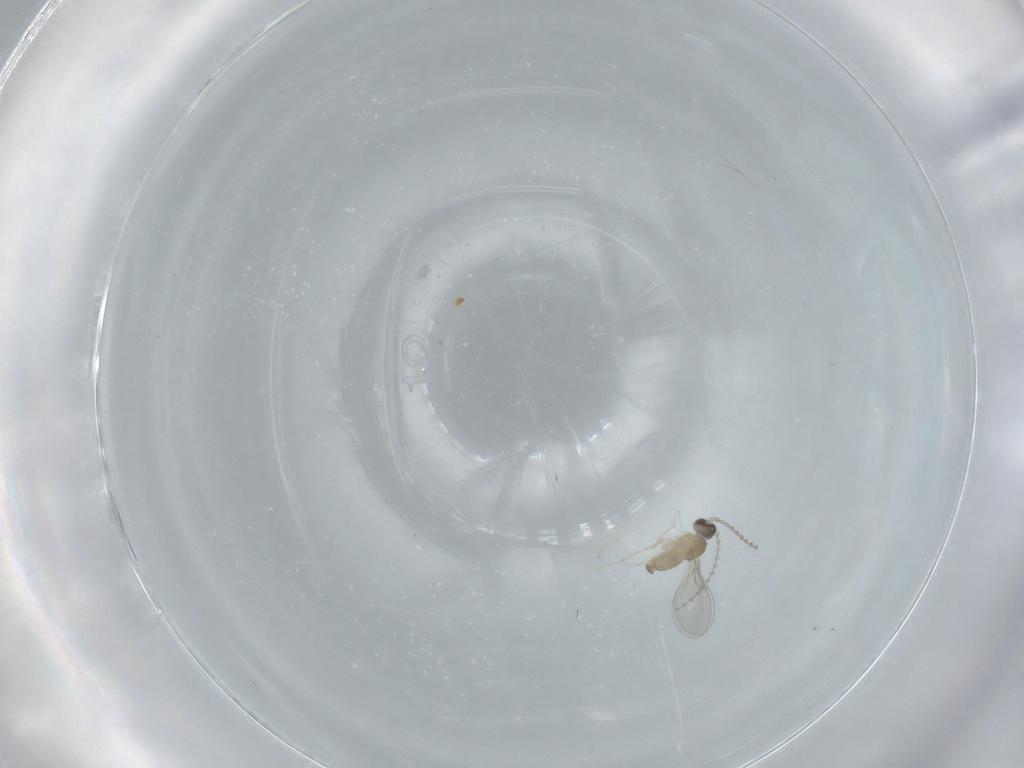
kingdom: Animalia
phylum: Arthropoda
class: Insecta
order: Diptera
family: Cecidomyiidae
